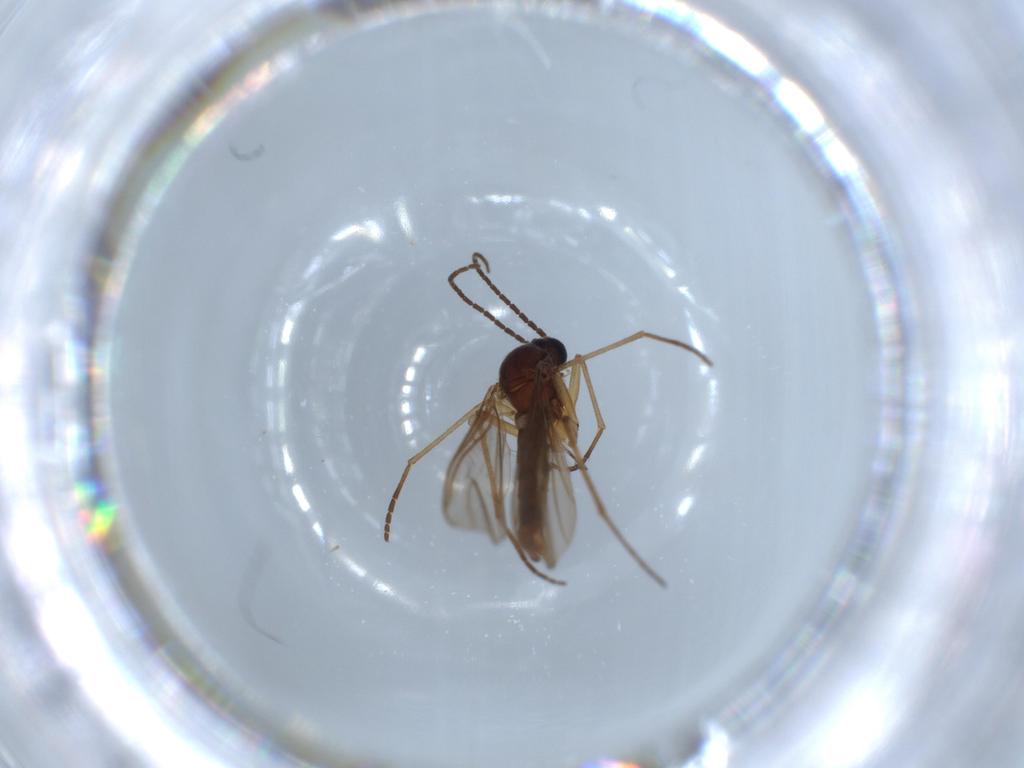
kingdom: Animalia
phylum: Arthropoda
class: Insecta
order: Diptera
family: Sciaridae
